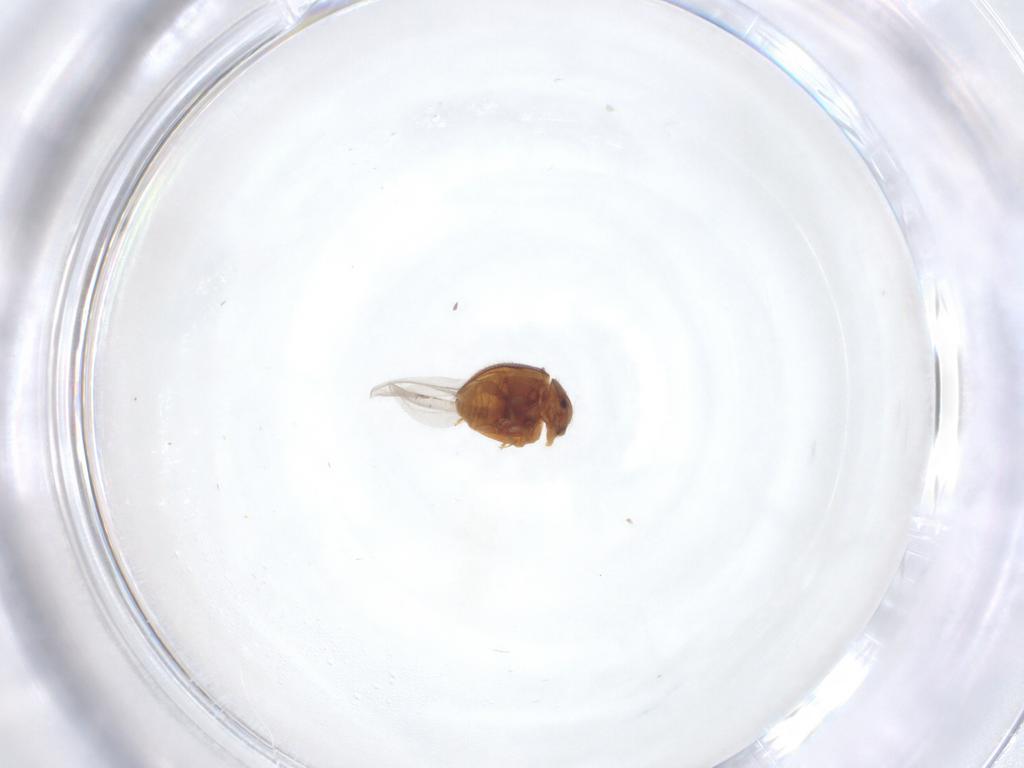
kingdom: Animalia
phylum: Arthropoda
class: Insecta
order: Coleoptera
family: Coccinellidae
